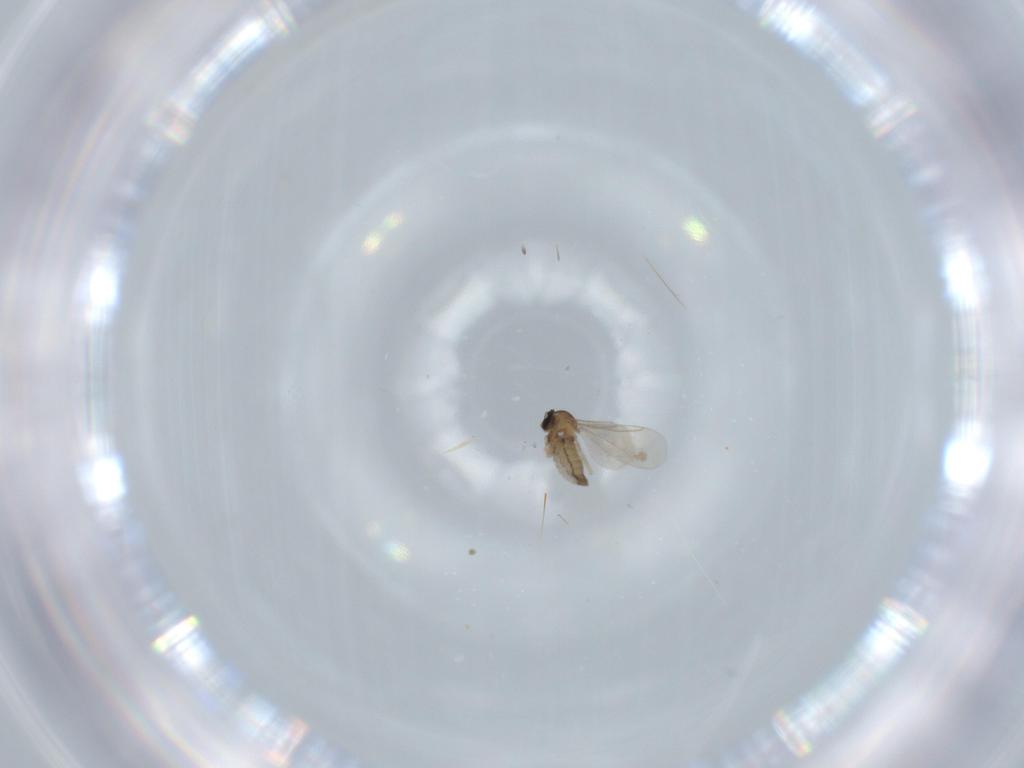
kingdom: Animalia
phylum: Arthropoda
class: Insecta
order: Diptera
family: Cecidomyiidae
